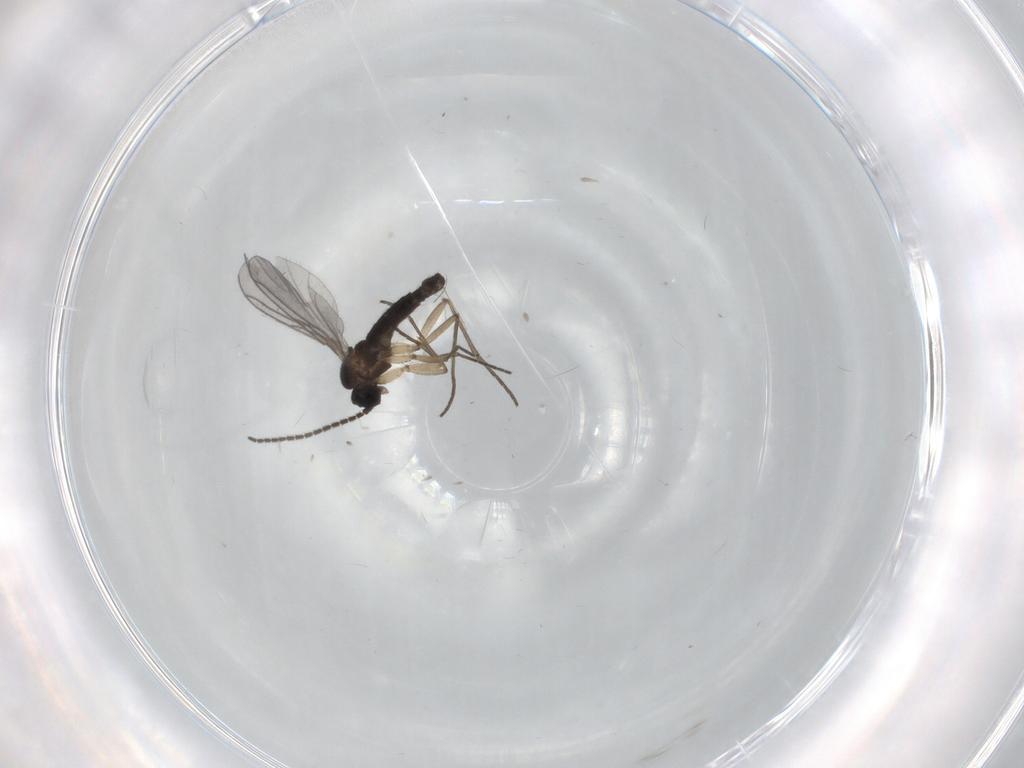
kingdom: Animalia
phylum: Arthropoda
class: Insecta
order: Diptera
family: Sciaridae
